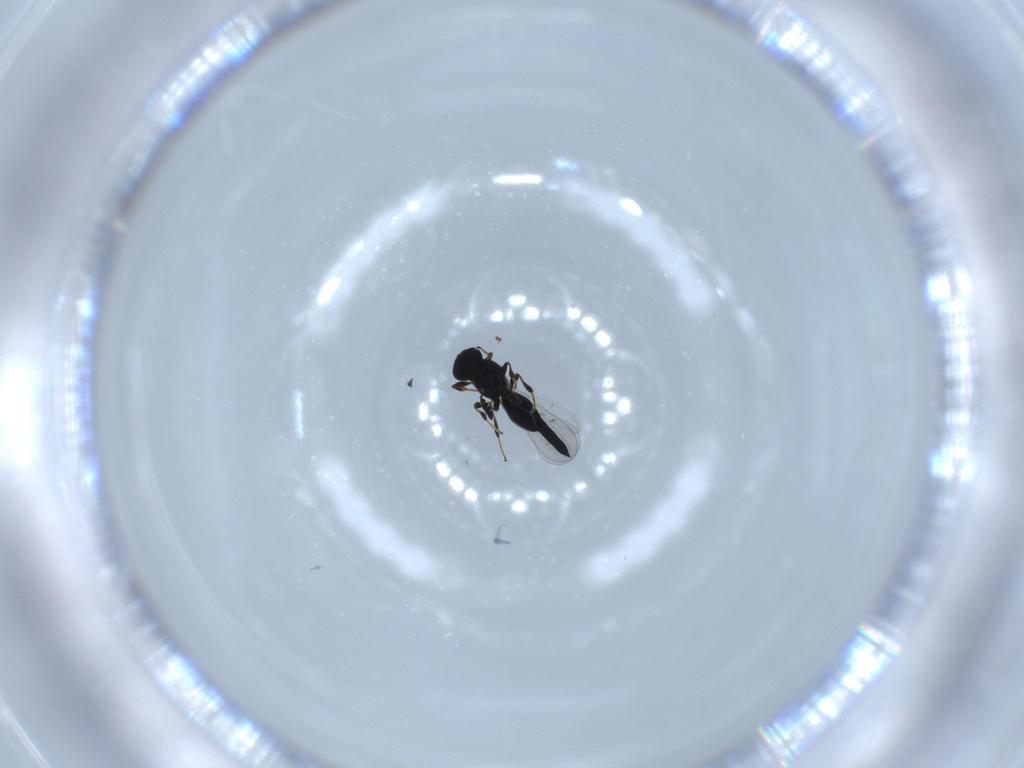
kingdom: Animalia
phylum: Arthropoda
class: Insecta
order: Hymenoptera
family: Platygastridae
